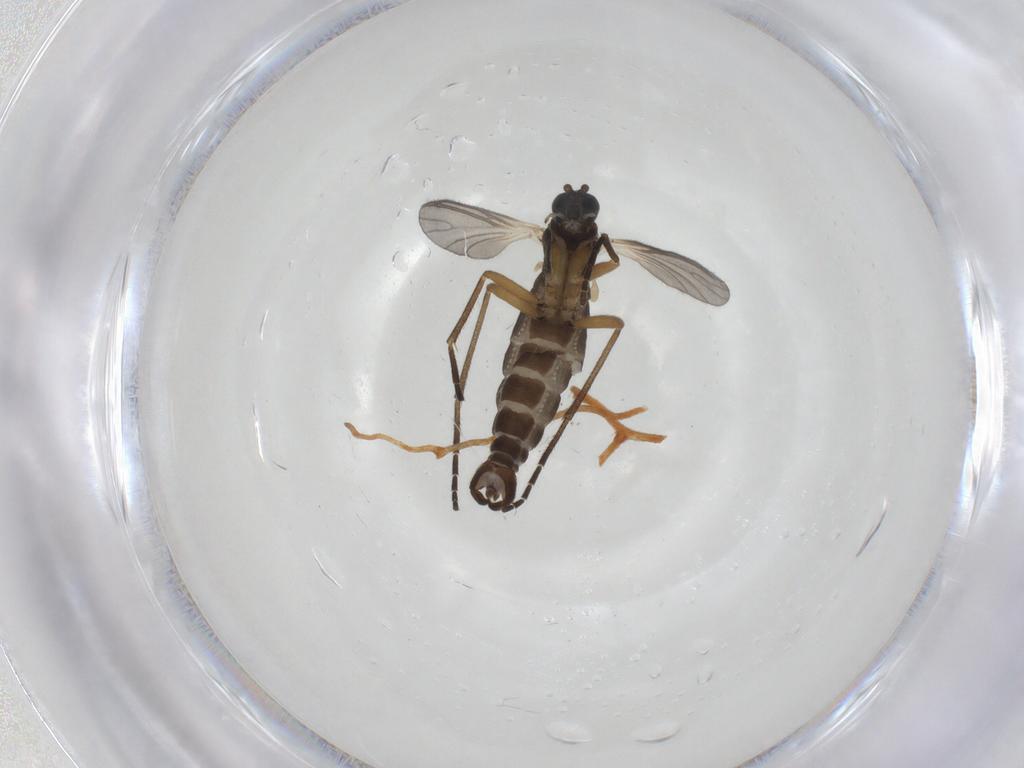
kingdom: Animalia
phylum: Arthropoda
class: Insecta
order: Diptera
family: Sciaridae
